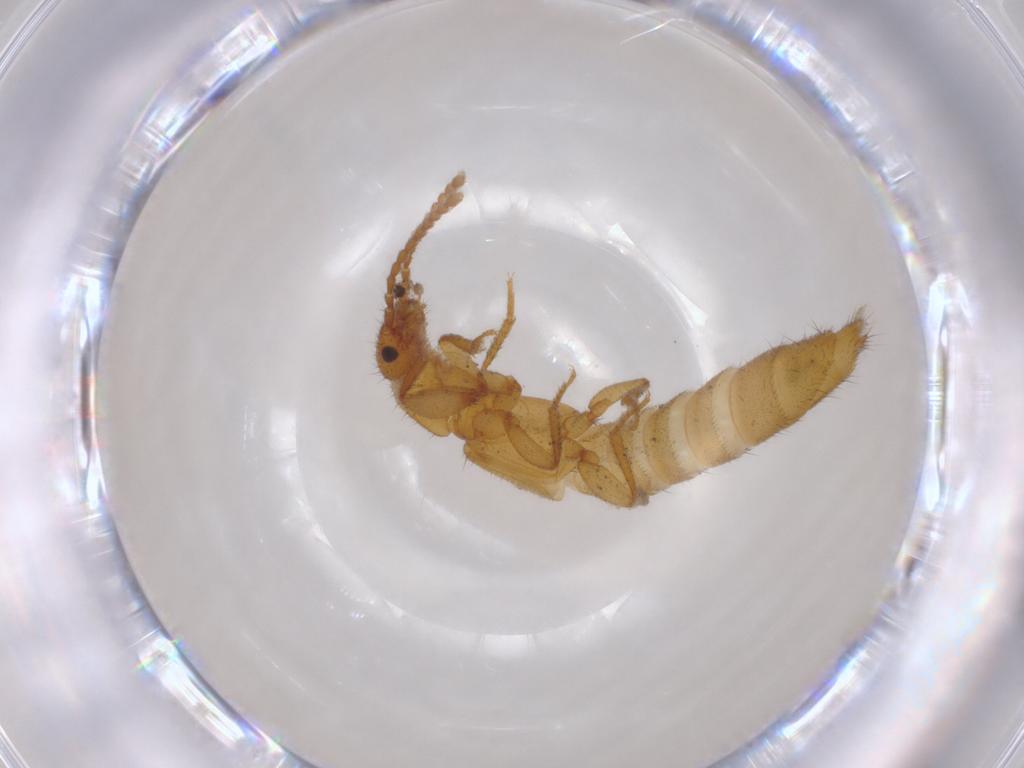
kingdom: Animalia
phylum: Arthropoda
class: Insecta
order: Coleoptera
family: Staphylinidae
